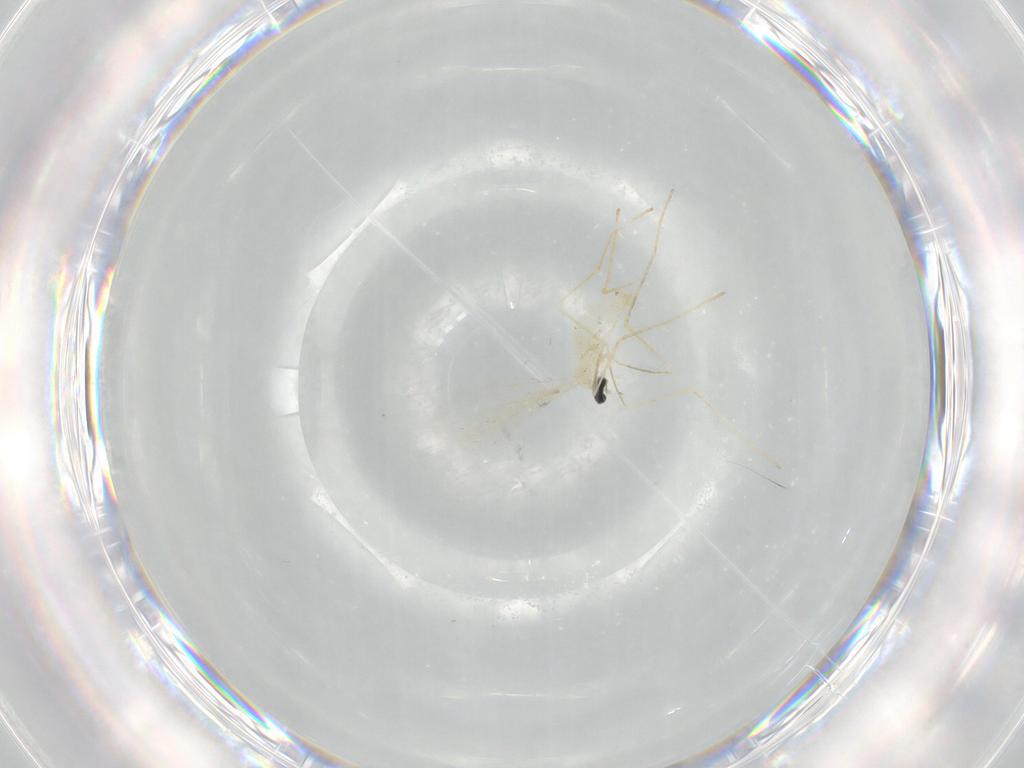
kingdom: Animalia
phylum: Arthropoda
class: Insecta
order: Diptera
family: Cecidomyiidae
